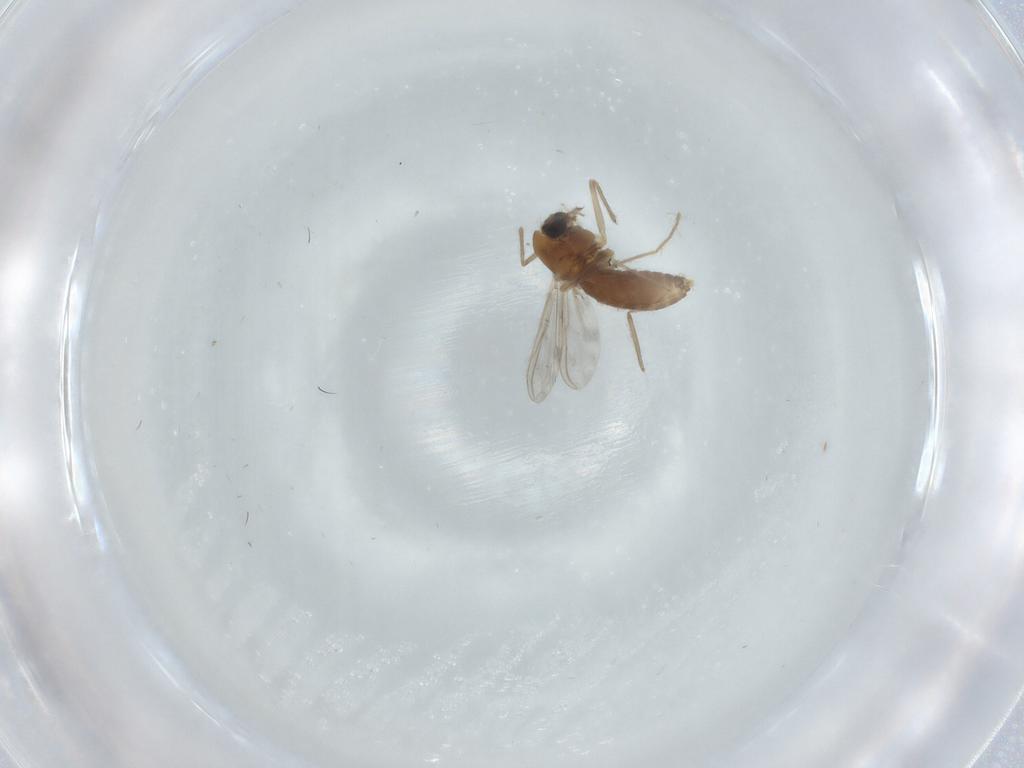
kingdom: Animalia
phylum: Arthropoda
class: Insecta
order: Diptera
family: Chironomidae
